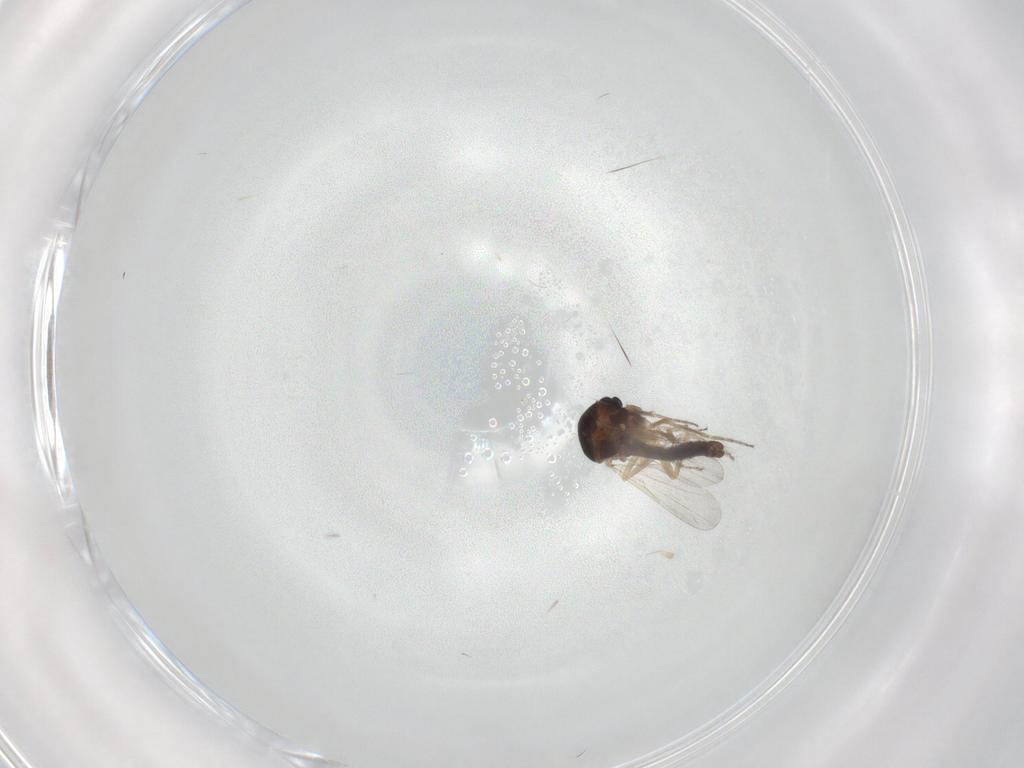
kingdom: Animalia
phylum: Arthropoda
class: Insecta
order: Diptera
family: Ceratopogonidae
